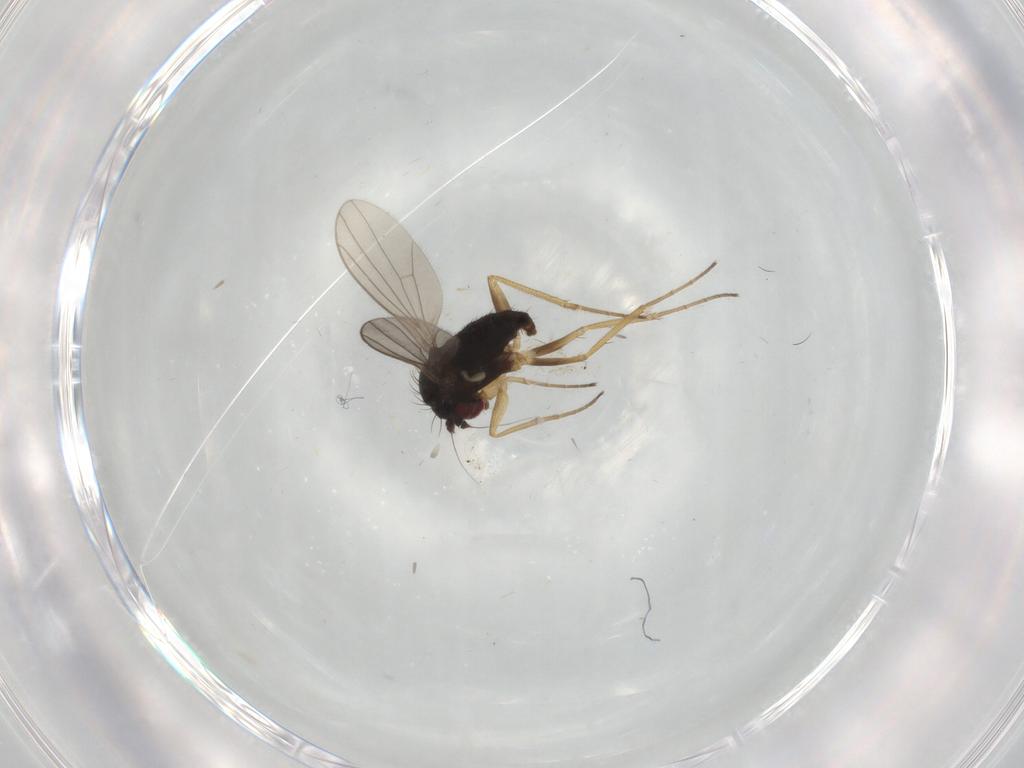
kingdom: Animalia
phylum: Arthropoda
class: Insecta
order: Diptera
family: Dolichopodidae
